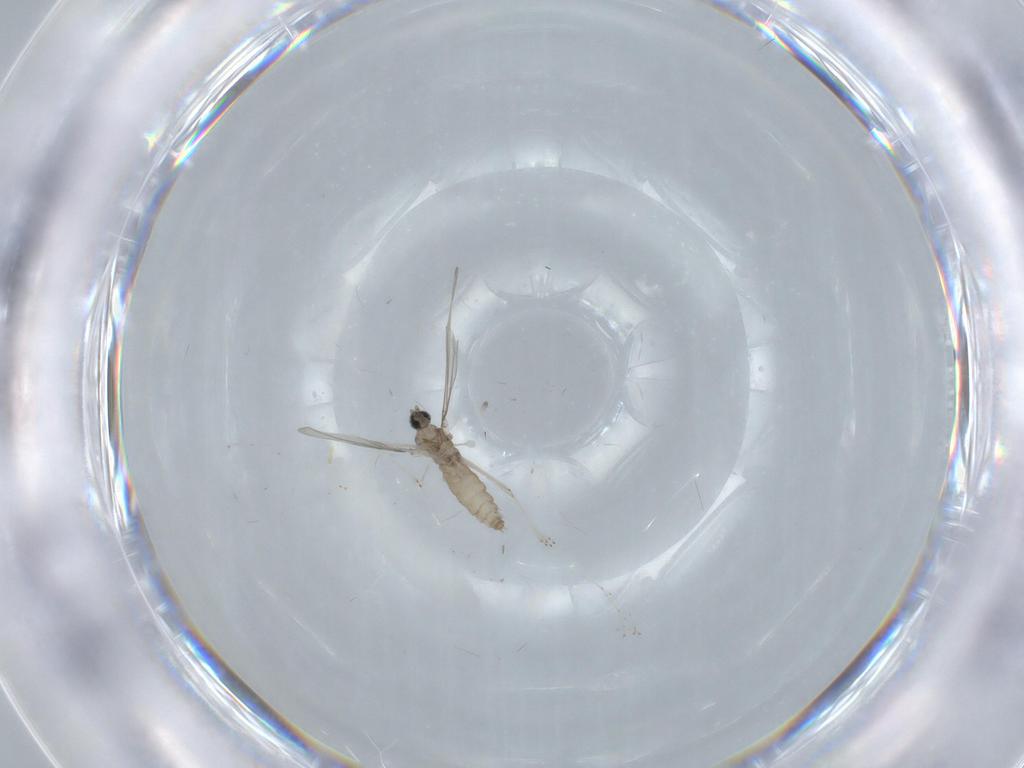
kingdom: Animalia
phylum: Arthropoda
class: Insecta
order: Diptera
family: Cecidomyiidae
